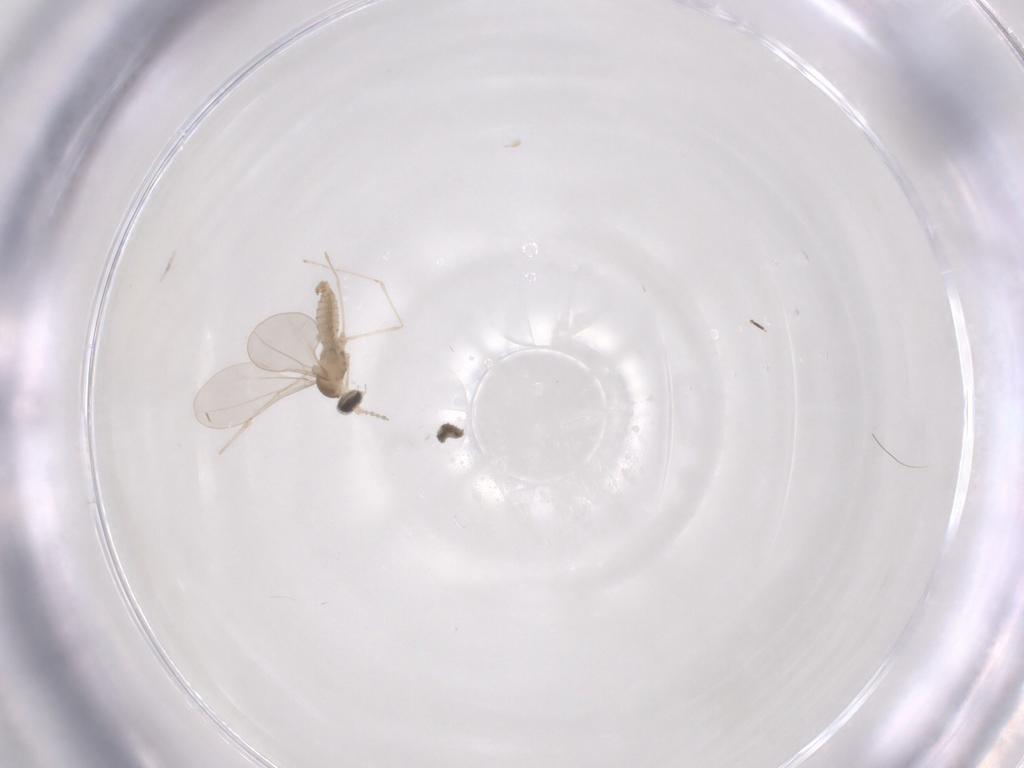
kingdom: Animalia
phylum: Arthropoda
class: Insecta
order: Diptera
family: Cecidomyiidae
